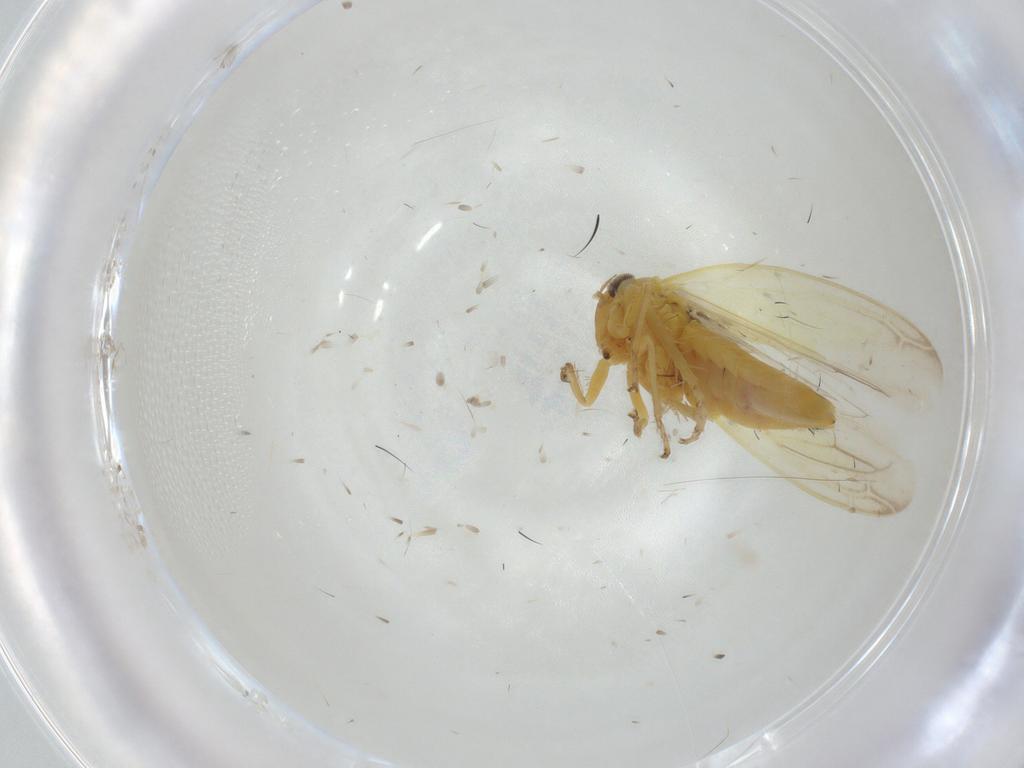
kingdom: Animalia
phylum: Arthropoda
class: Insecta
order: Hemiptera
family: Cicadellidae
